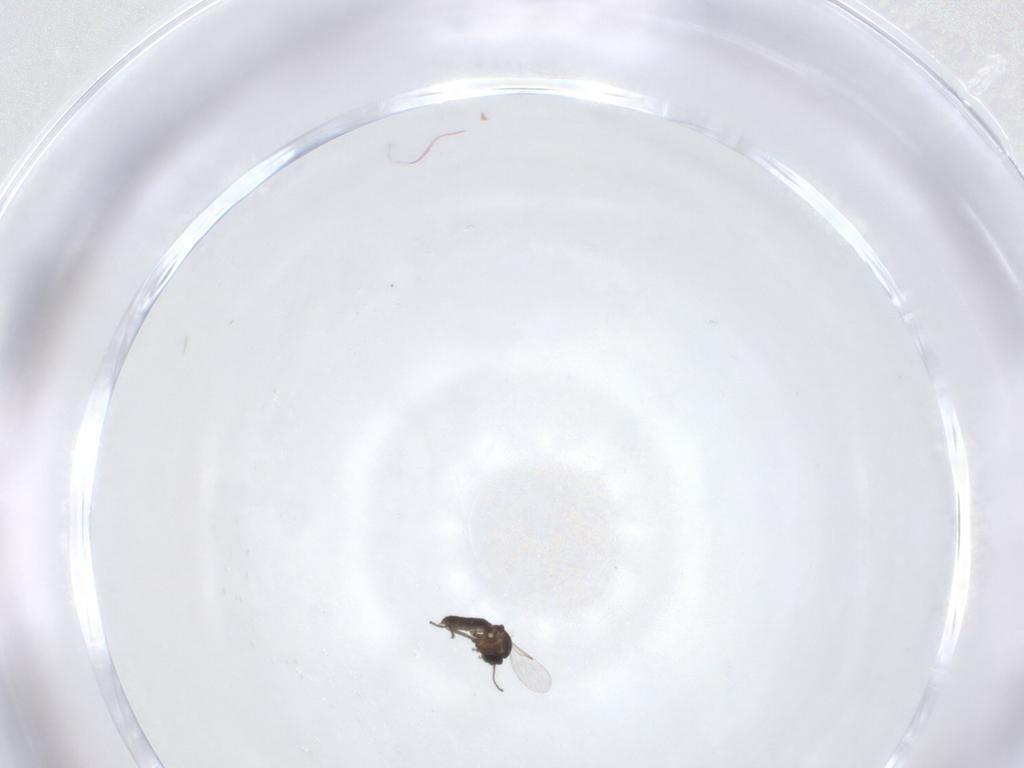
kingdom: Animalia
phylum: Arthropoda
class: Insecta
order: Diptera
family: Ceratopogonidae
